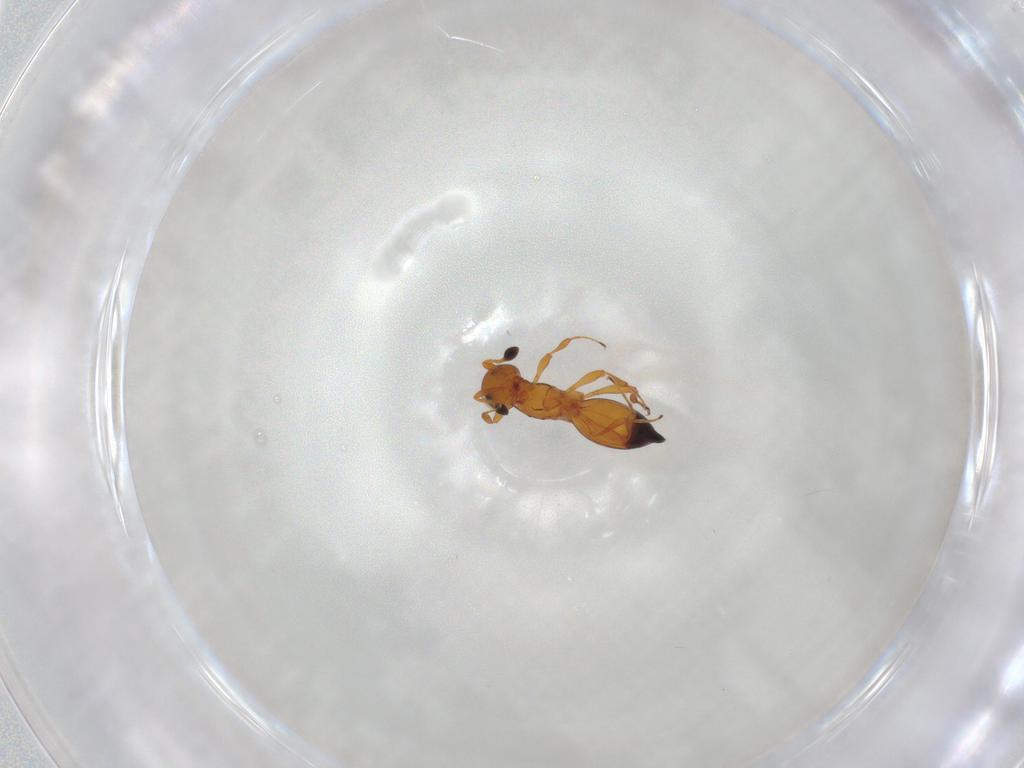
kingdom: Animalia
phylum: Arthropoda
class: Insecta
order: Hymenoptera
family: Platygastridae
